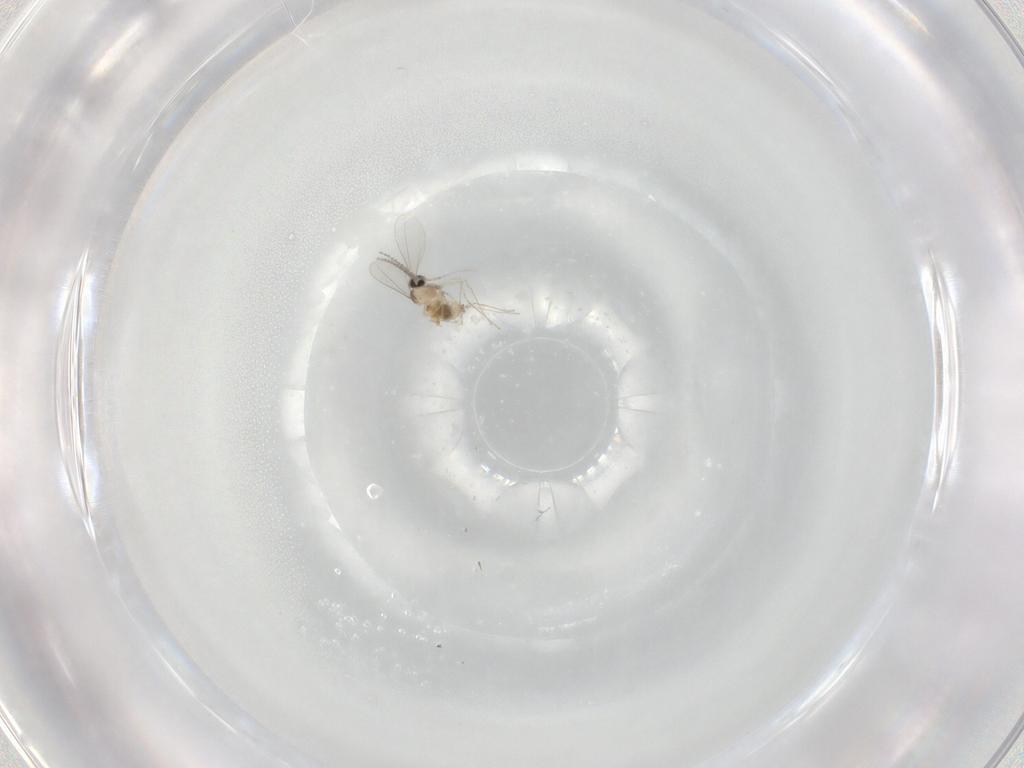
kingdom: Animalia
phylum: Arthropoda
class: Insecta
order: Diptera
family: Cecidomyiidae
